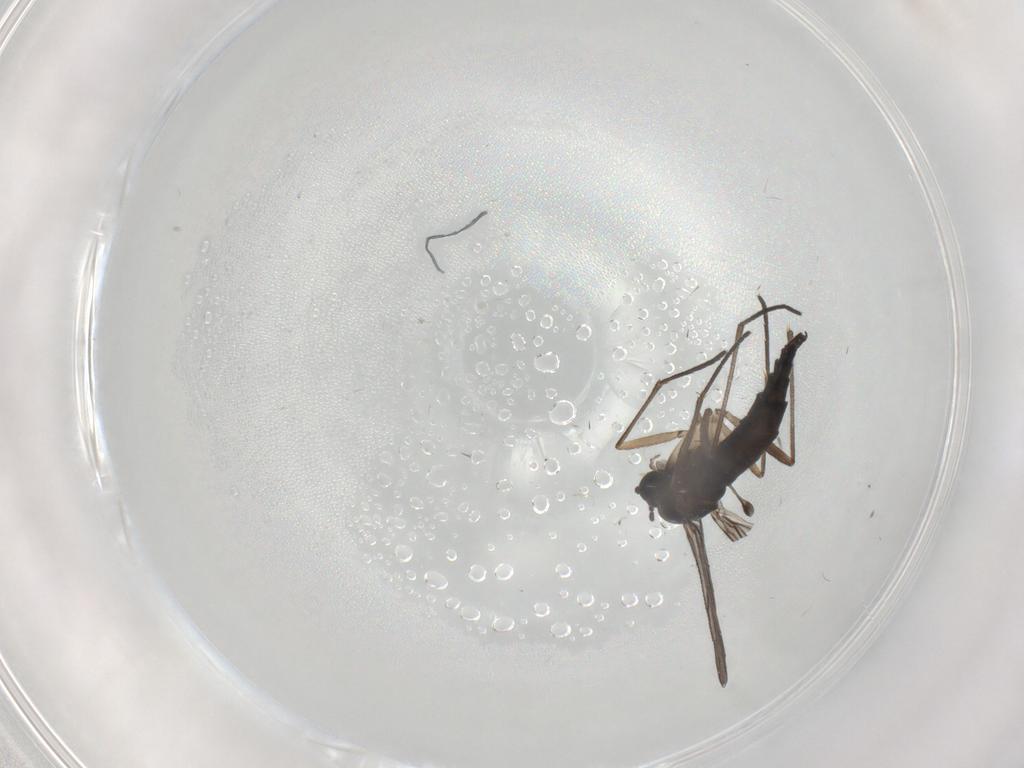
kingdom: Animalia
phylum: Arthropoda
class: Insecta
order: Diptera
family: Sciaridae
